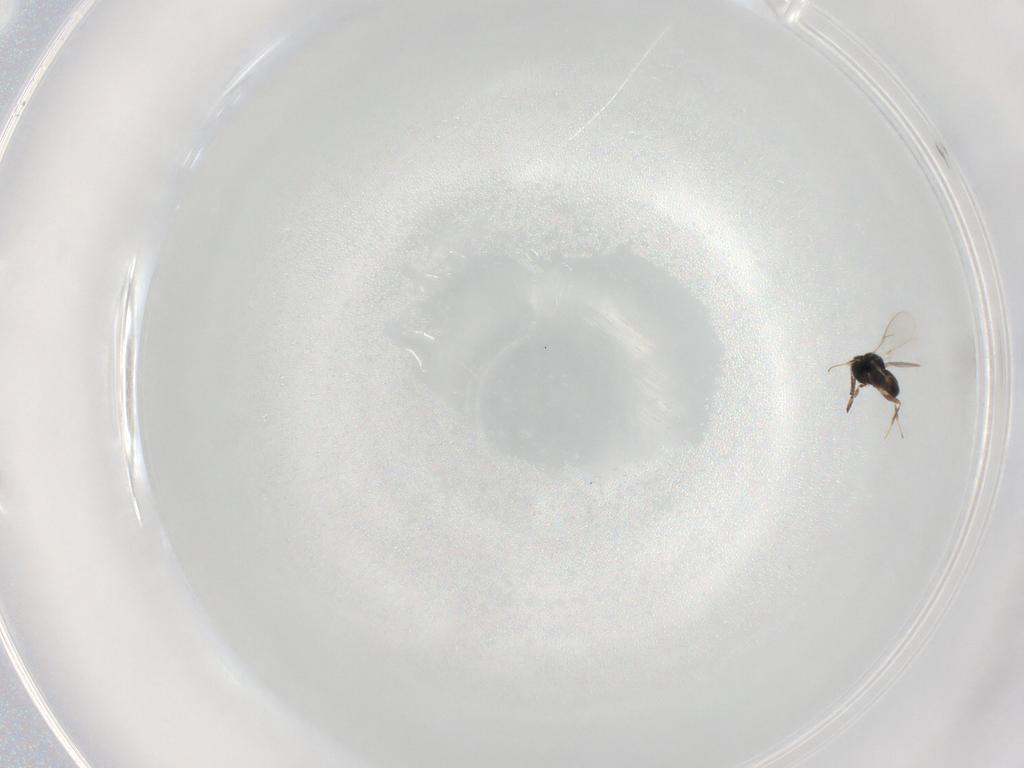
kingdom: Animalia
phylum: Arthropoda
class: Insecta
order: Hymenoptera
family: Scelionidae
